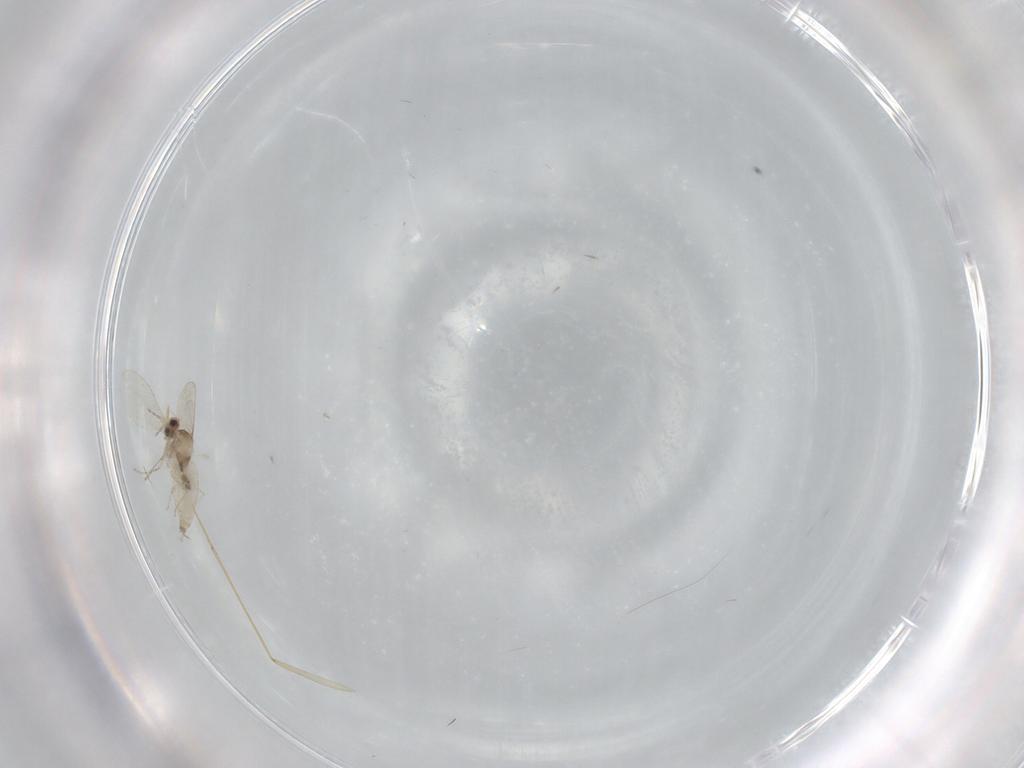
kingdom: Animalia
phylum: Arthropoda
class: Insecta
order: Diptera
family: Cecidomyiidae
